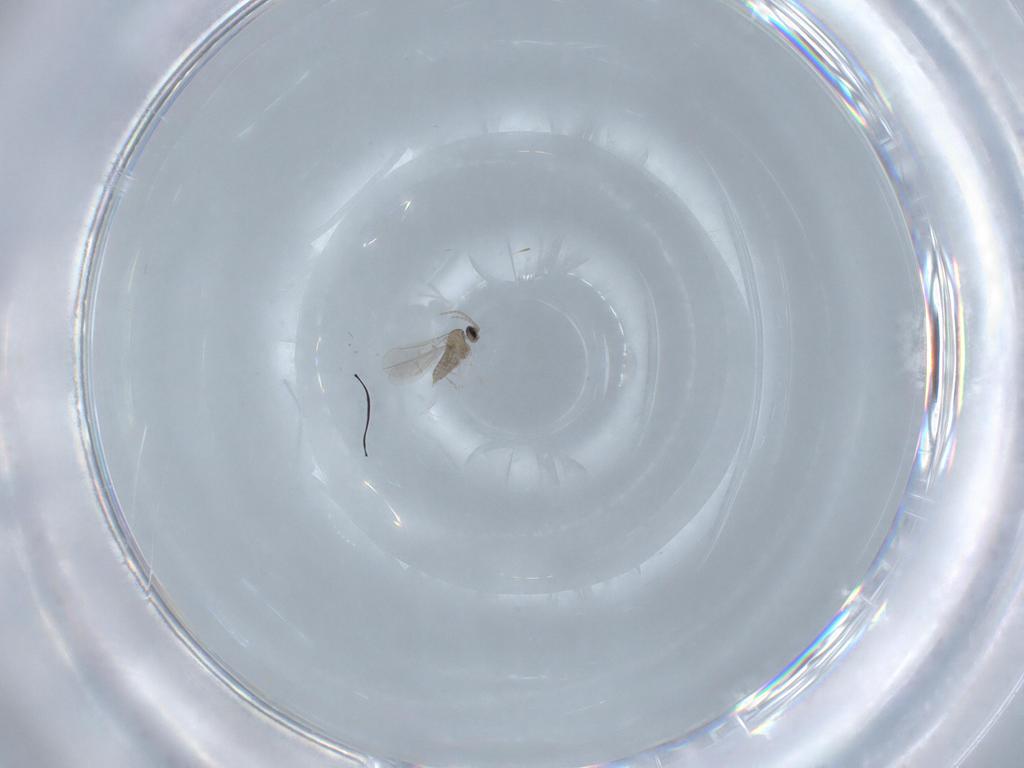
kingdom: Animalia
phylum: Arthropoda
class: Insecta
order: Diptera
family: Cecidomyiidae
